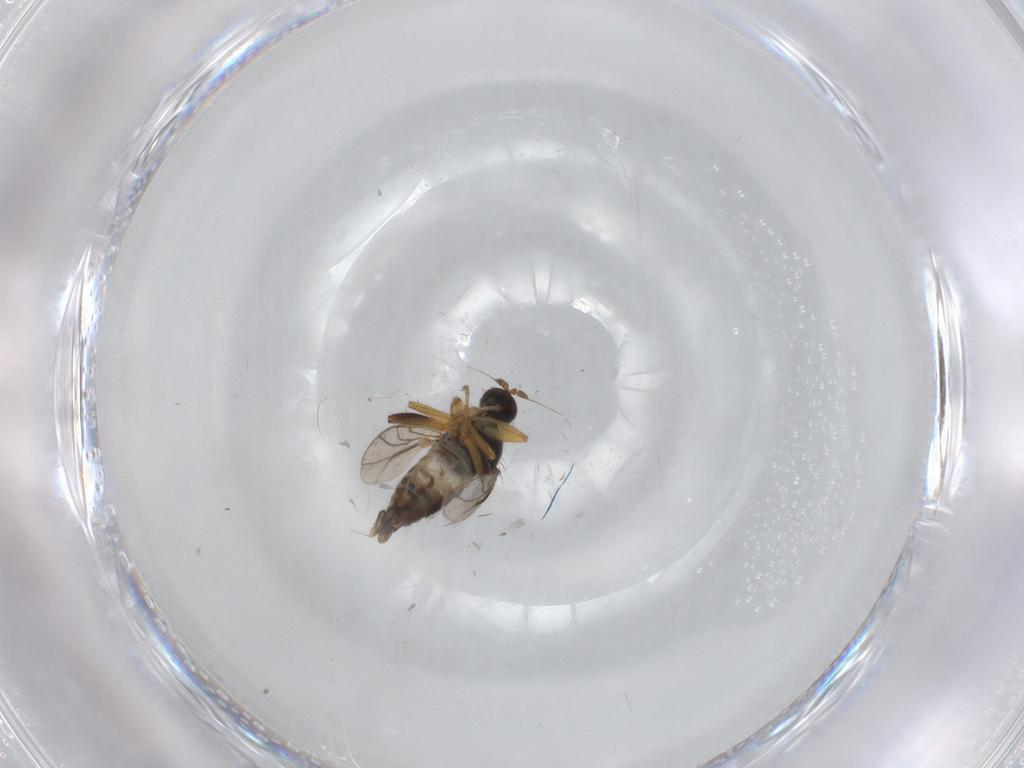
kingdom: Animalia
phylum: Arthropoda
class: Insecta
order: Diptera
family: Hybotidae
